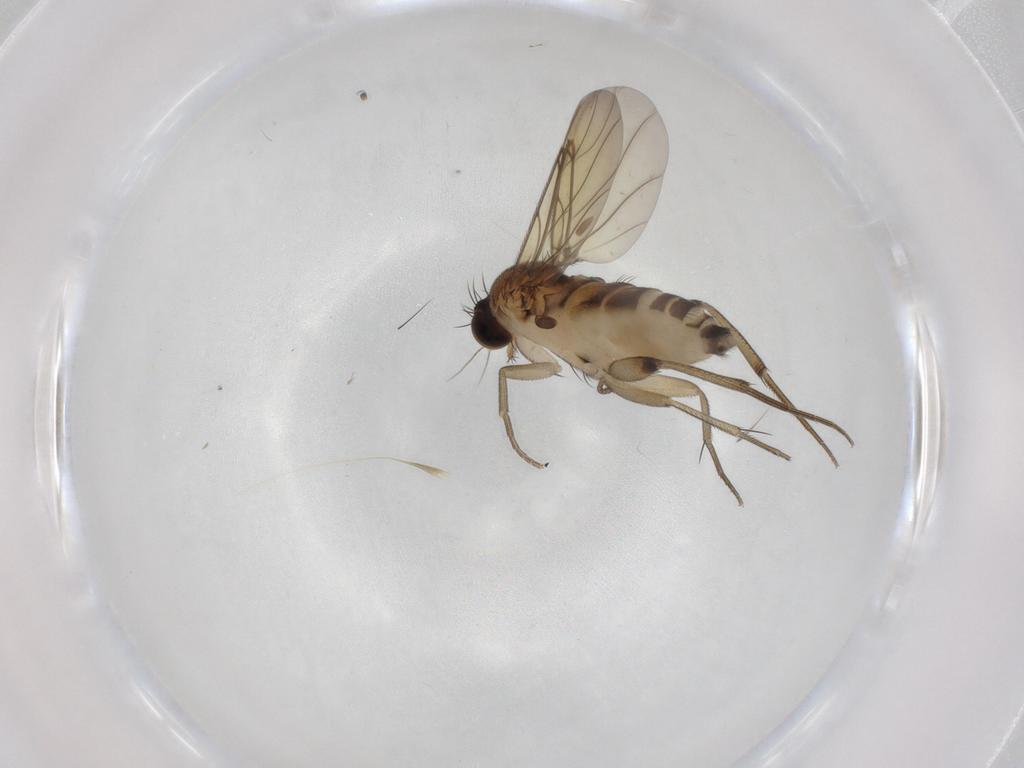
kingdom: Animalia
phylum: Arthropoda
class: Insecta
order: Diptera
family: Phoridae
